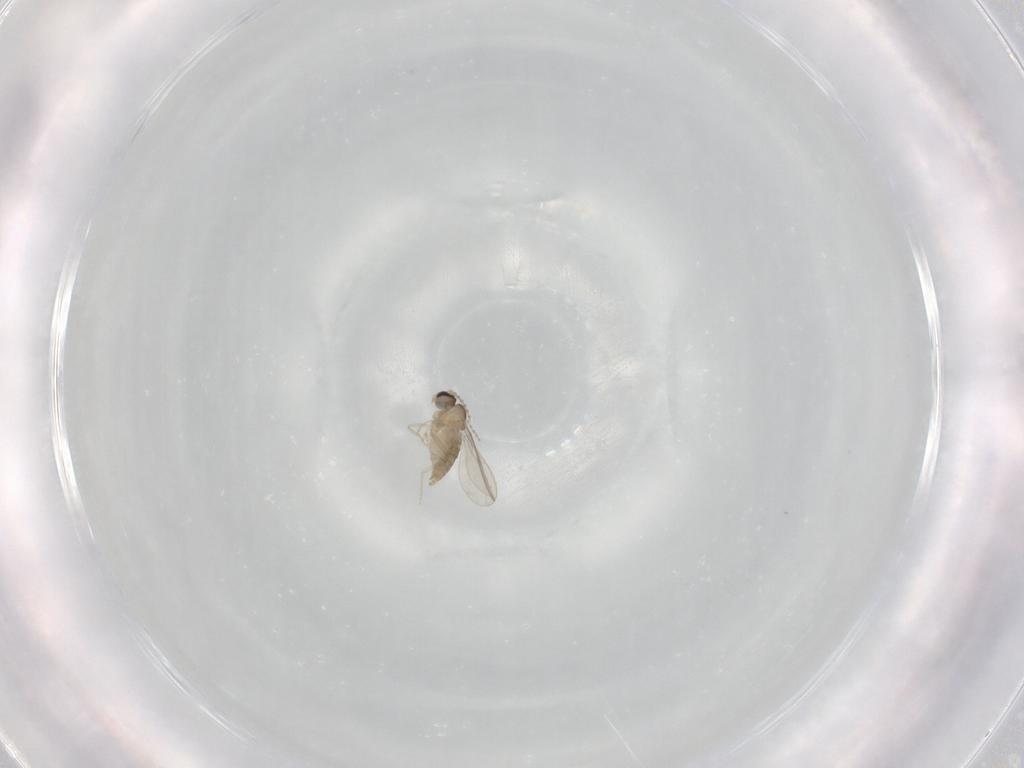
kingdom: Animalia
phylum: Arthropoda
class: Insecta
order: Diptera
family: Cecidomyiidae
